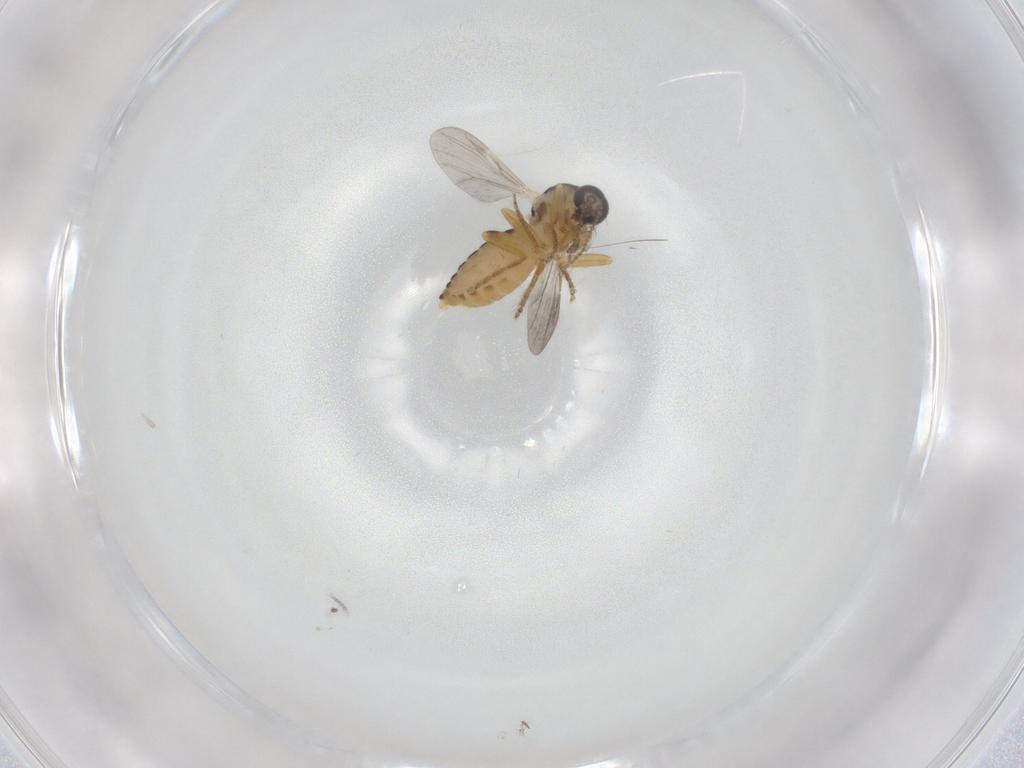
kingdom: Animalia
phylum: Arthropoda
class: Insecta
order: Diptera
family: Ceratopogonidae
